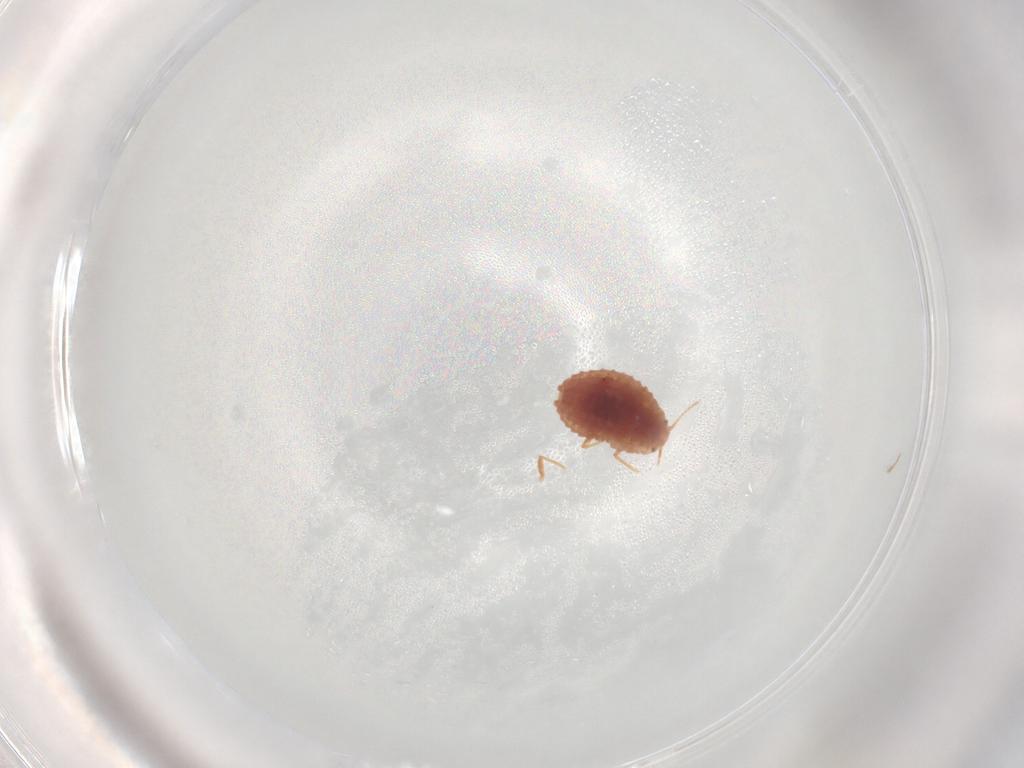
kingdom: Animalia
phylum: Arthropoda
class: Insecta
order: Hemiptera
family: Pseudococcidae
